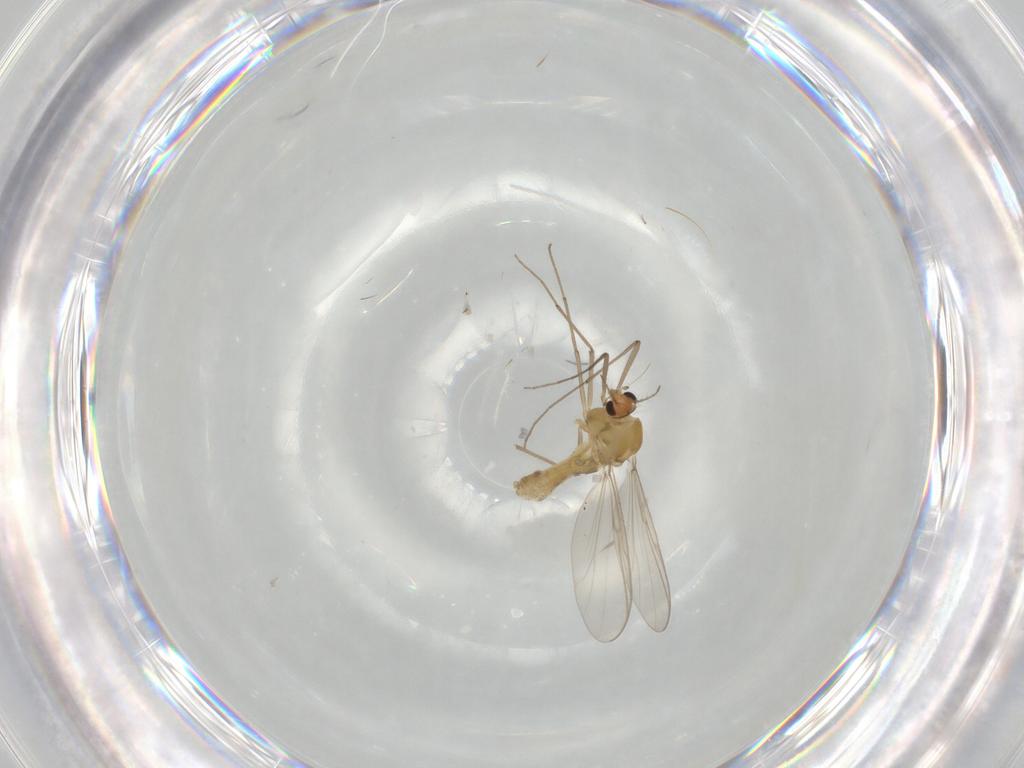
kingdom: Animalia
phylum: Arthropoda
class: Insecta
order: Diptera
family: Chironomidae
